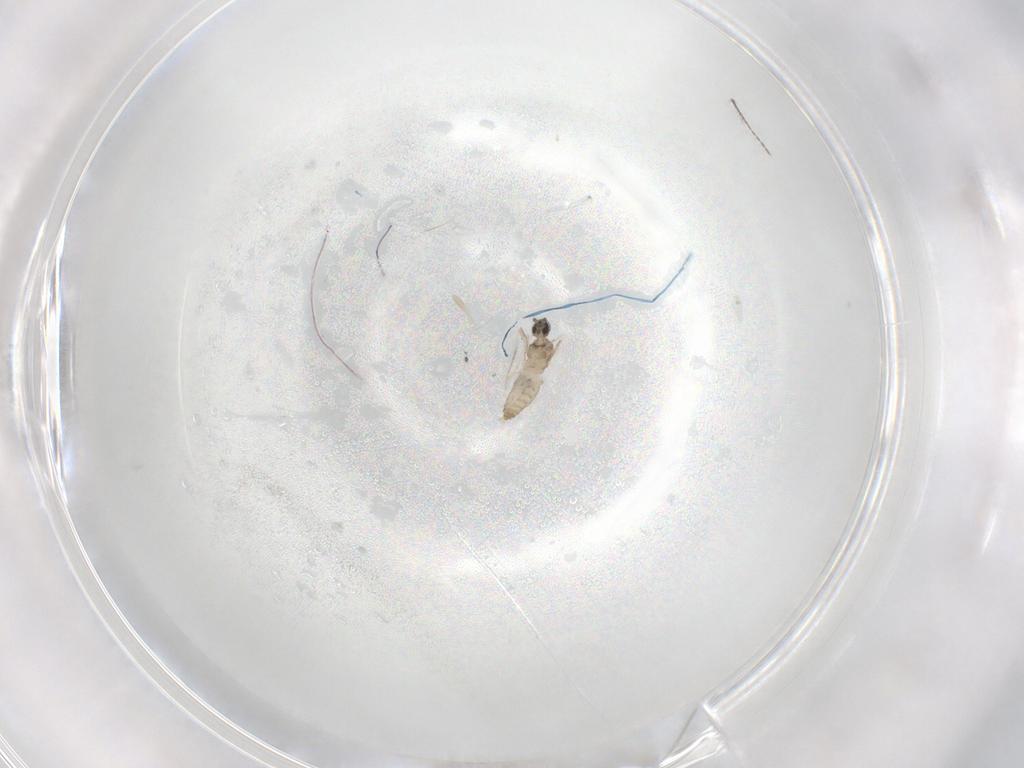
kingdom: Animalia
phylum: Arthropoda
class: Insecta
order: Diptera
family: Cecidomyiidae
